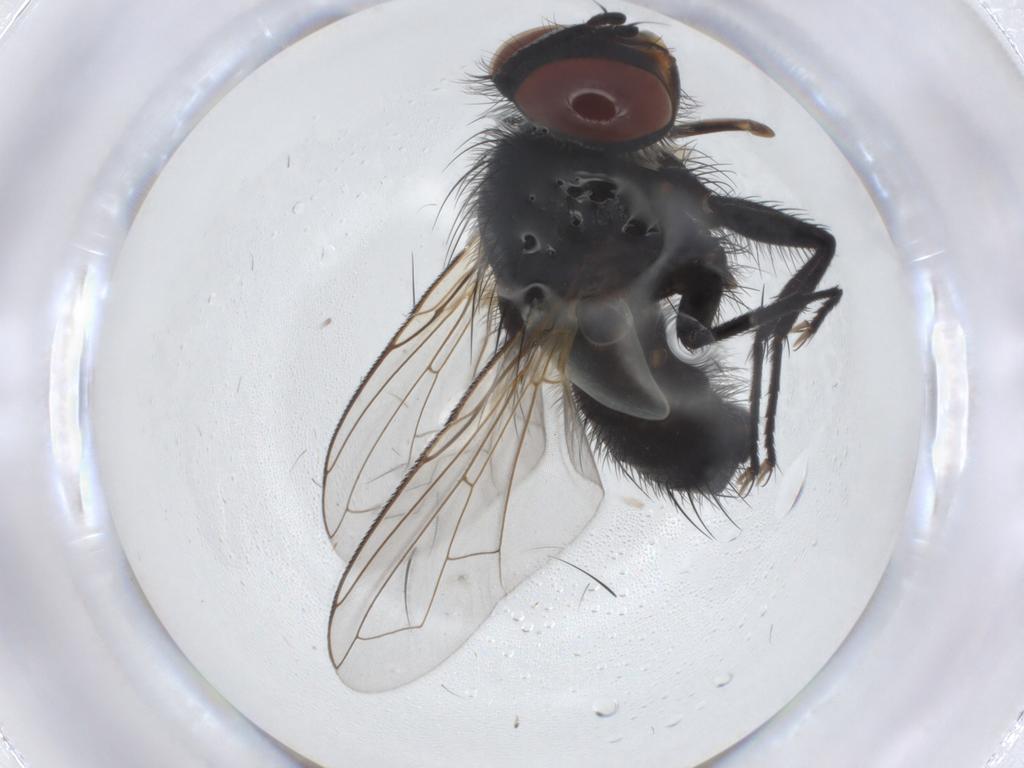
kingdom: Animalia
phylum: Arthropoda
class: Insecta
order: Diptera
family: Tachinidae
